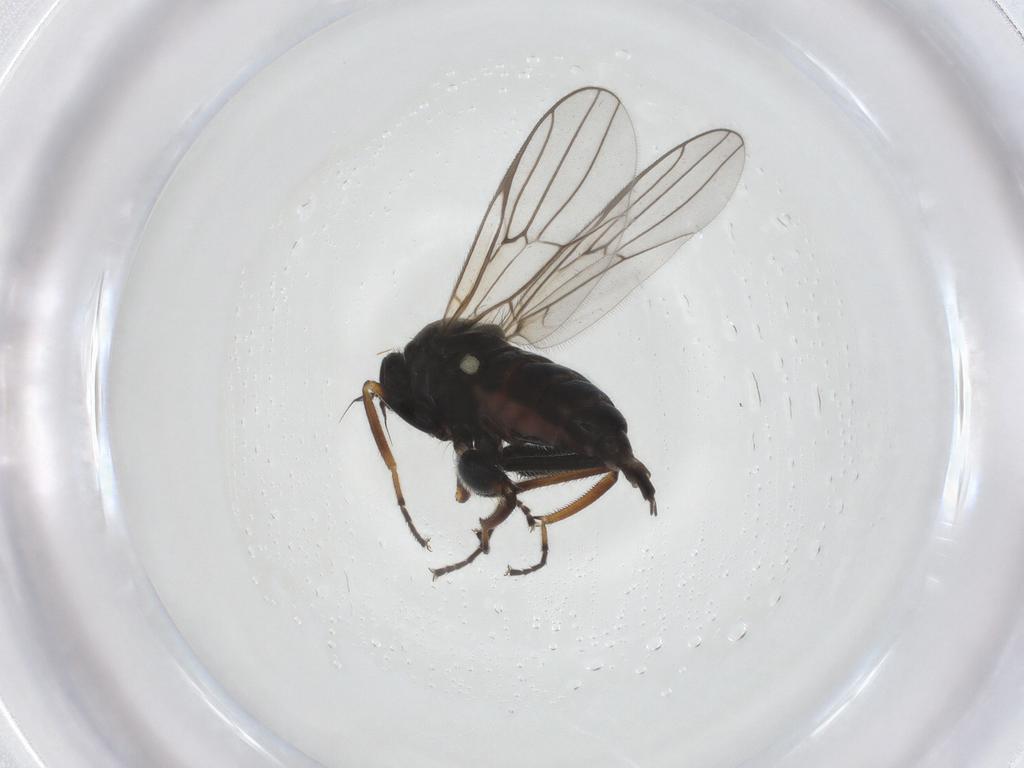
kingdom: Animalia
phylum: Arthropoda
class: Insecta
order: Diptera
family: Hybotidae
